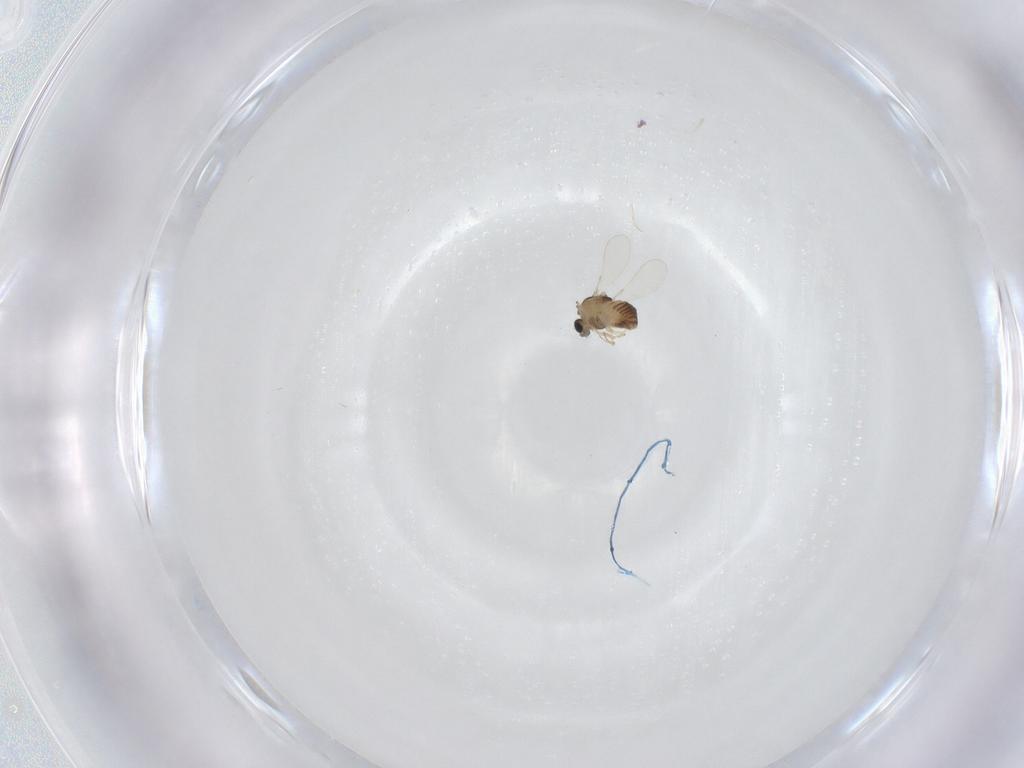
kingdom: Animalia
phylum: Arthropoda
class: Insecta
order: Diptera
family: Chironomidae
